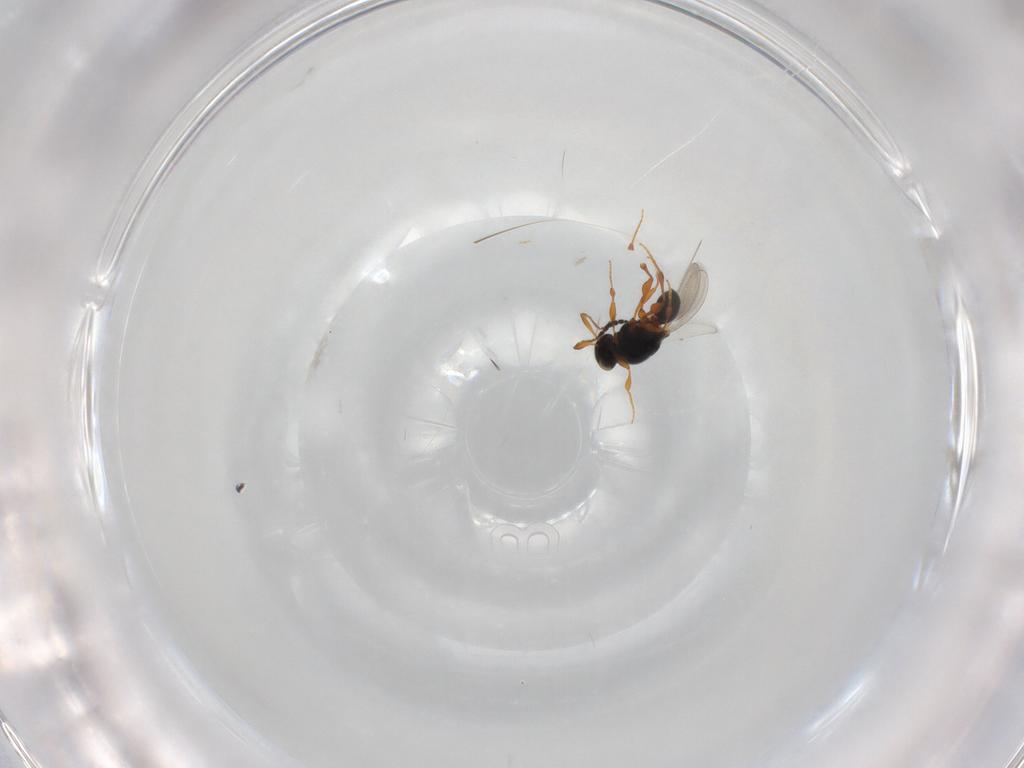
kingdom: Animalia
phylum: Arthropoda
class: Insecta
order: Hymenoptera
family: Platygastridae
